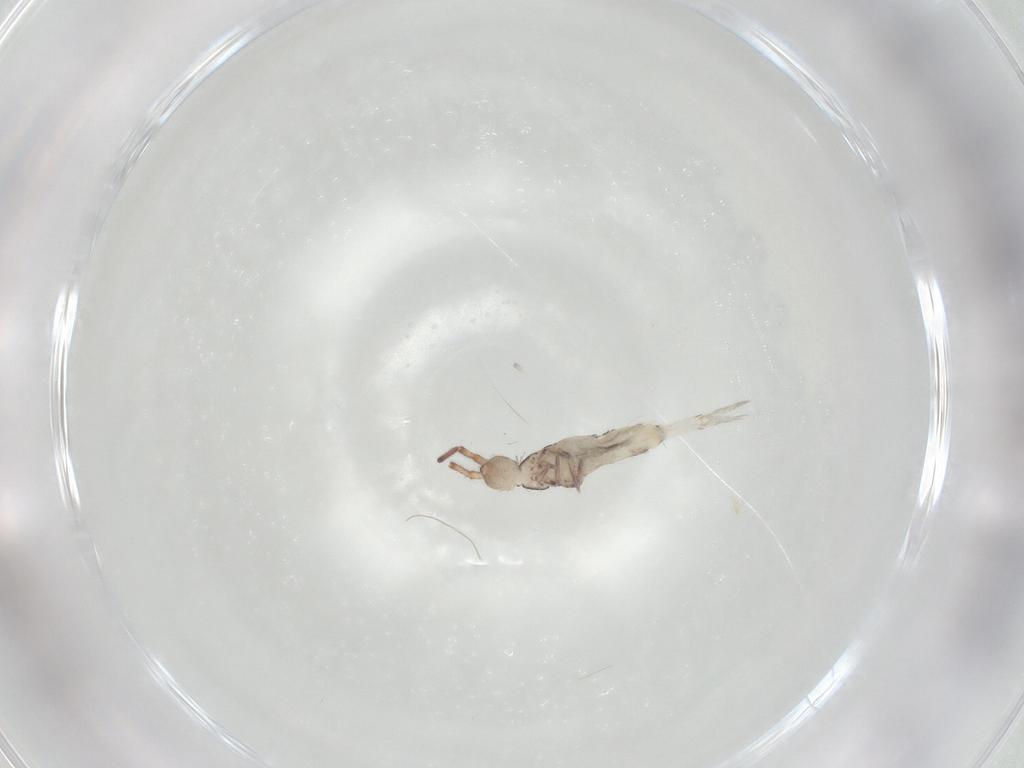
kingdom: Animalia
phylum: Arthropoda
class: Collembola
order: Entomobryomorpha
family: Entomobryidae
